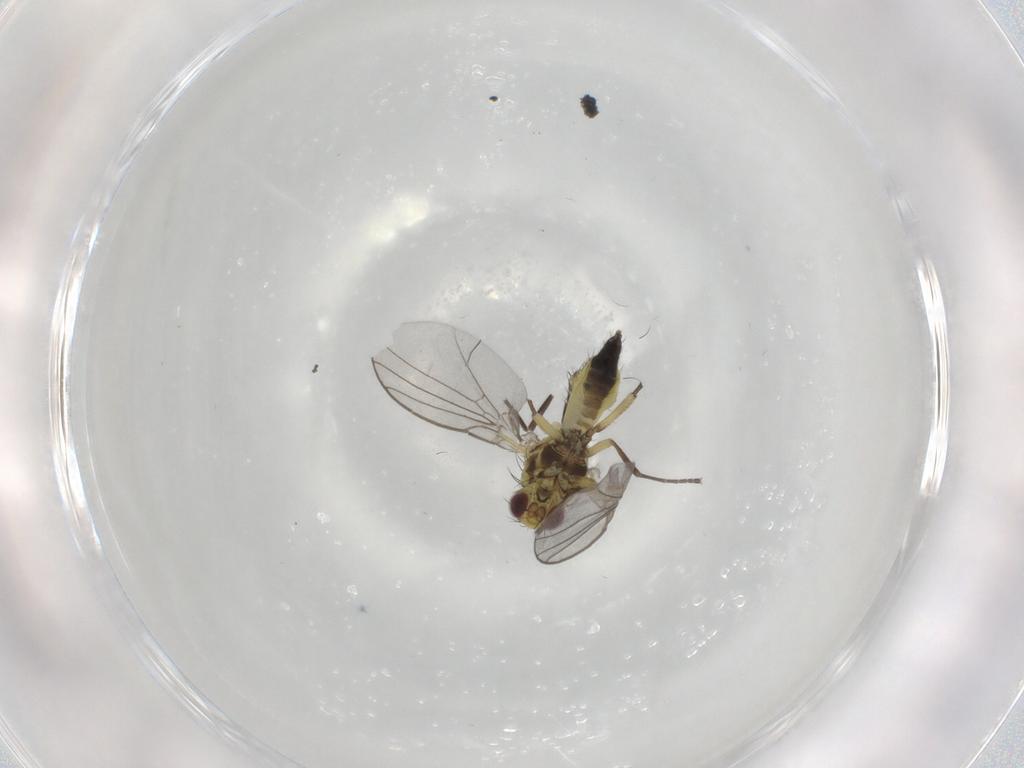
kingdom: Animalia
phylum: Arthropoda
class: Insecta
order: Diptera
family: Agromyzidae
